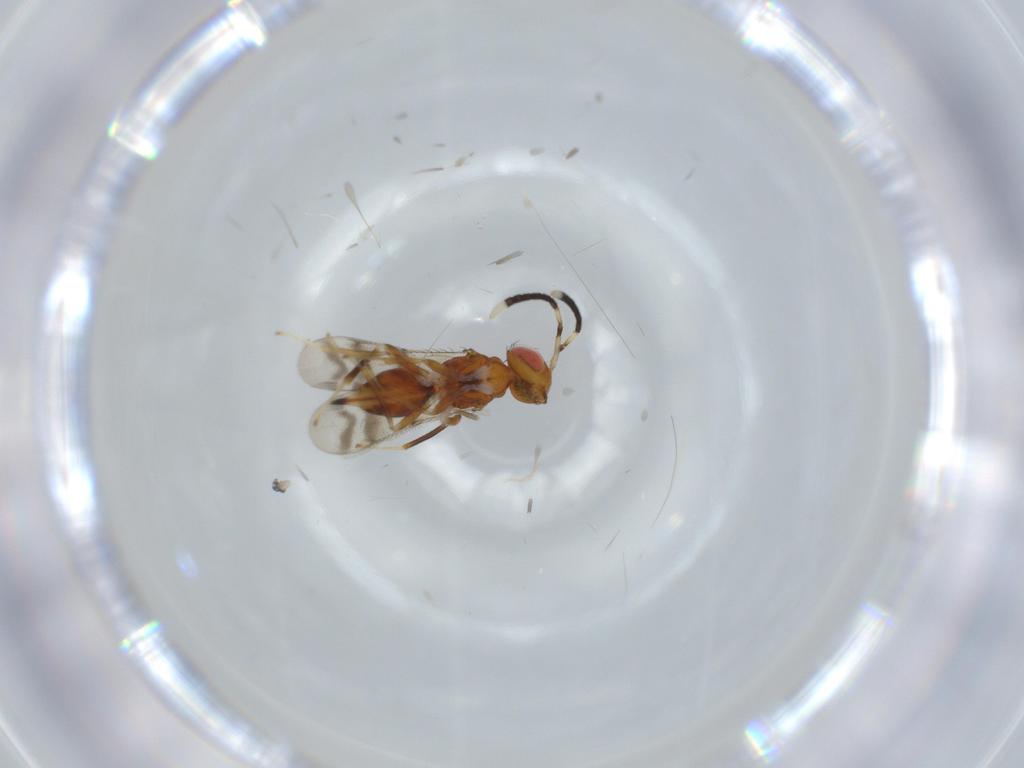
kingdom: Animalia
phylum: Arthropoda
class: Insecta
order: Hymenoptera
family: Diparidae
